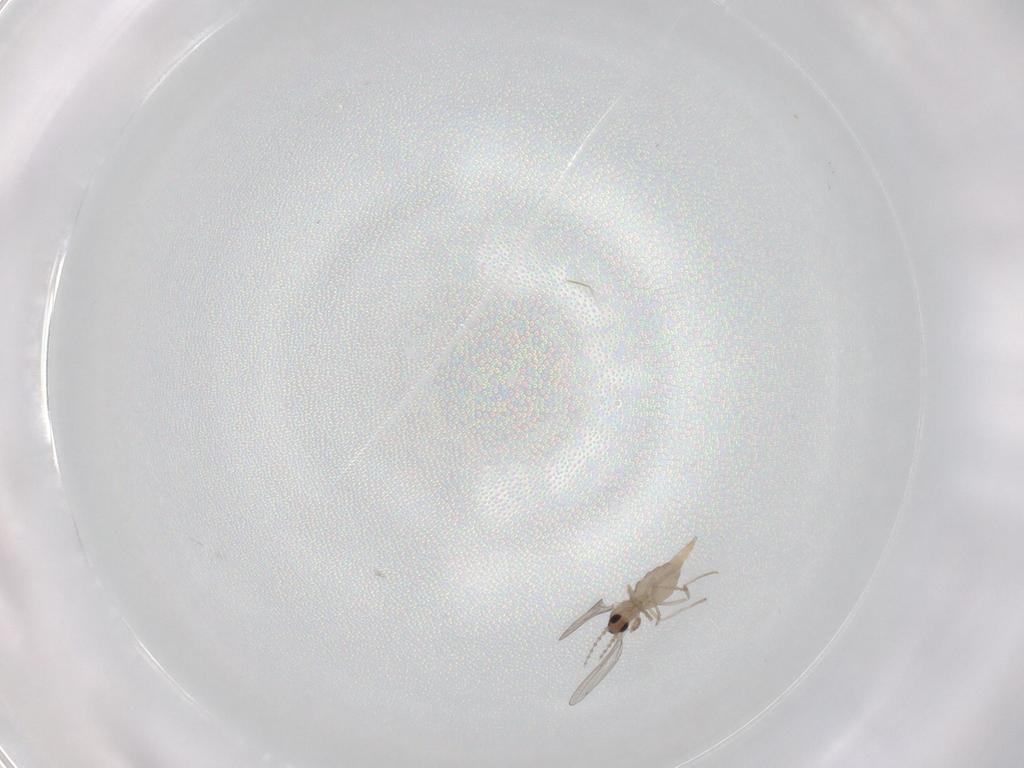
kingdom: Animalia
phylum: Arthropoda
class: Insecta
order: Diptera
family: Cecidomyiidae
